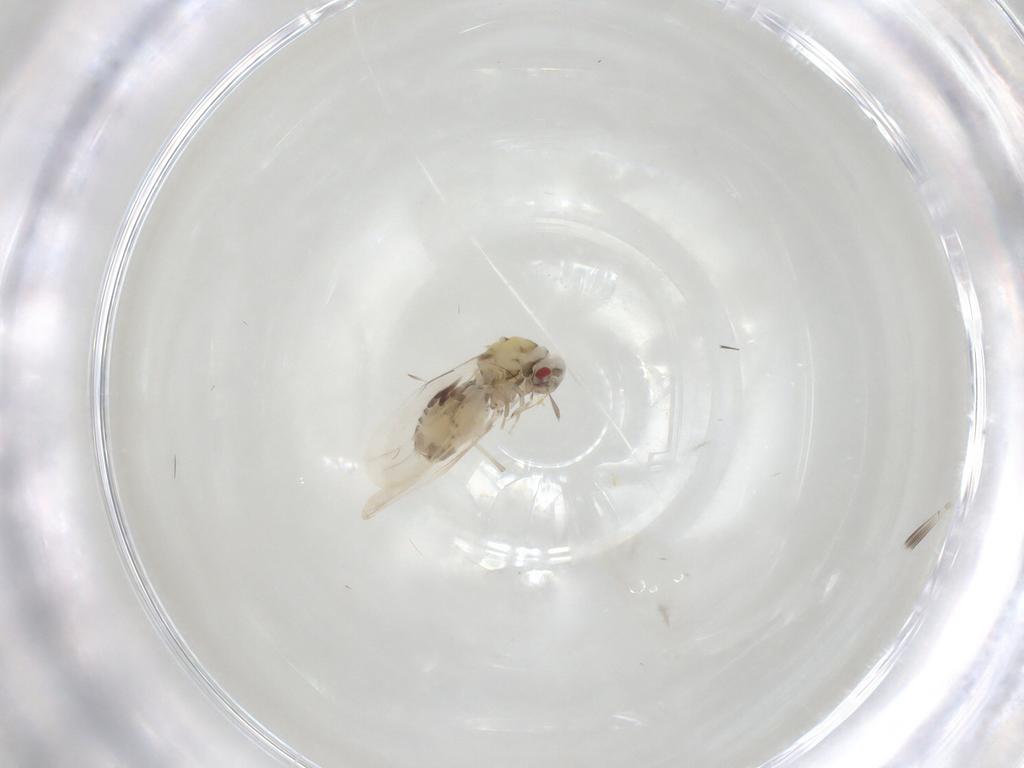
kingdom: Animalia
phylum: Arthropoda
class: Insecta
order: Hemiptera
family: Aleyrodidae
